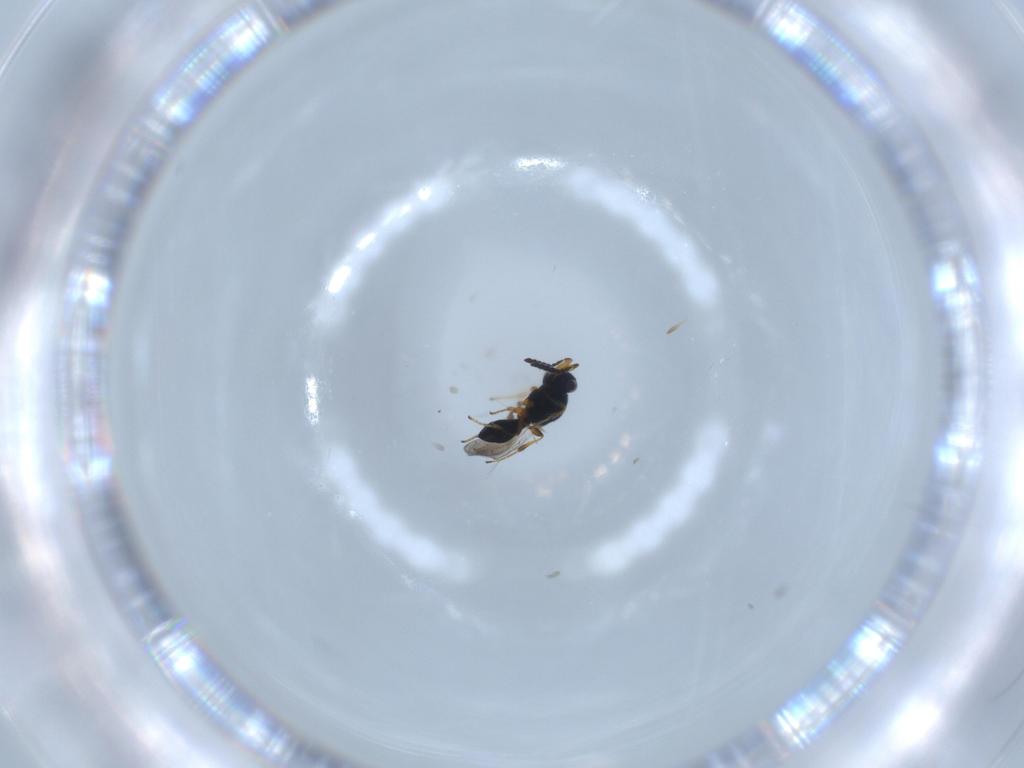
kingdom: Animalia
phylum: Arthropoda
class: Insecta
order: Hymenoptera
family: Platygastridae
